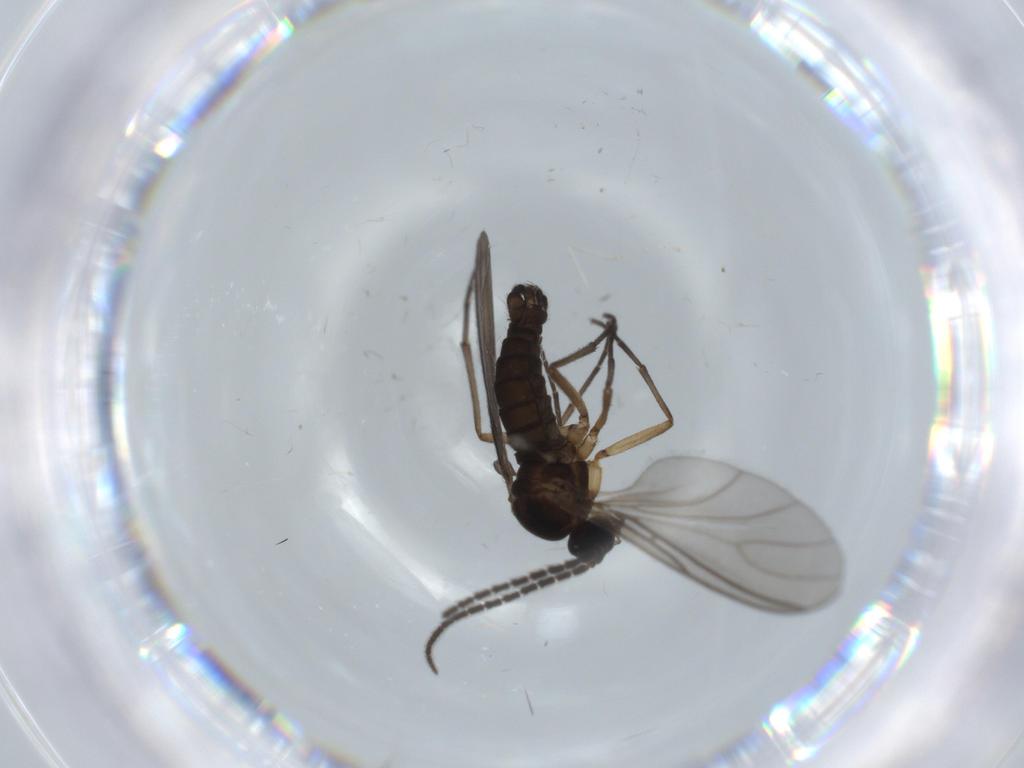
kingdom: Animalia
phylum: Arthropoda
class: Insecta
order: Diptera
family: Sciaridae
